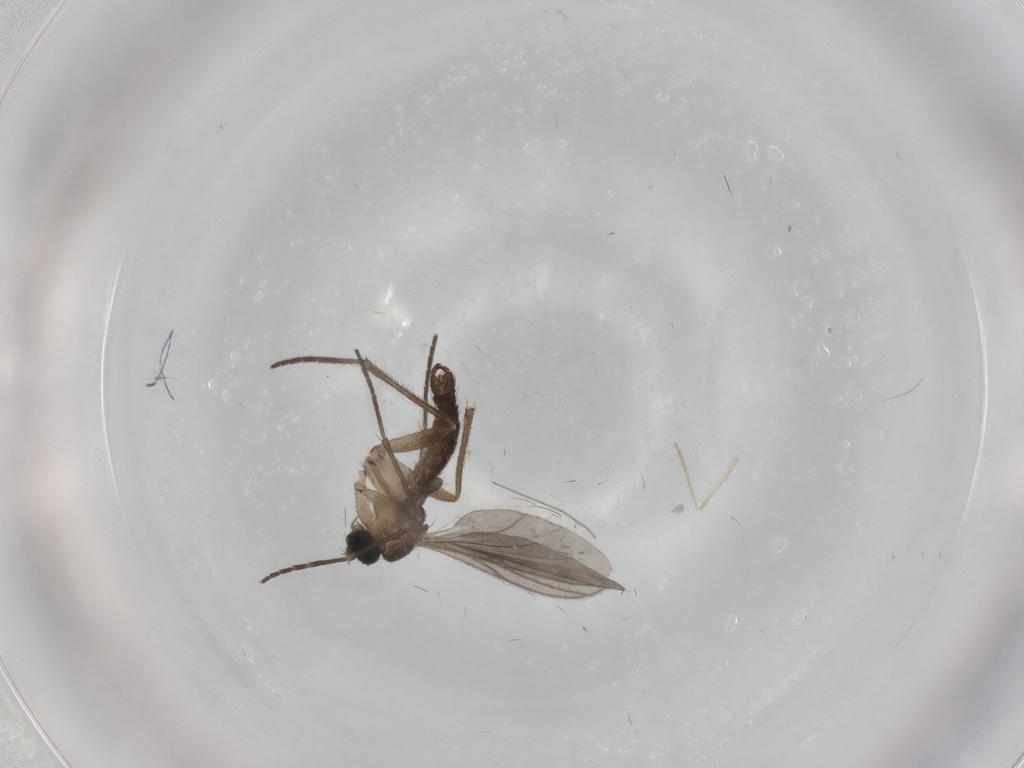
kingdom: Animalia
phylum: Arthropoda
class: Insecta
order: Diptera
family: Sciaridae
